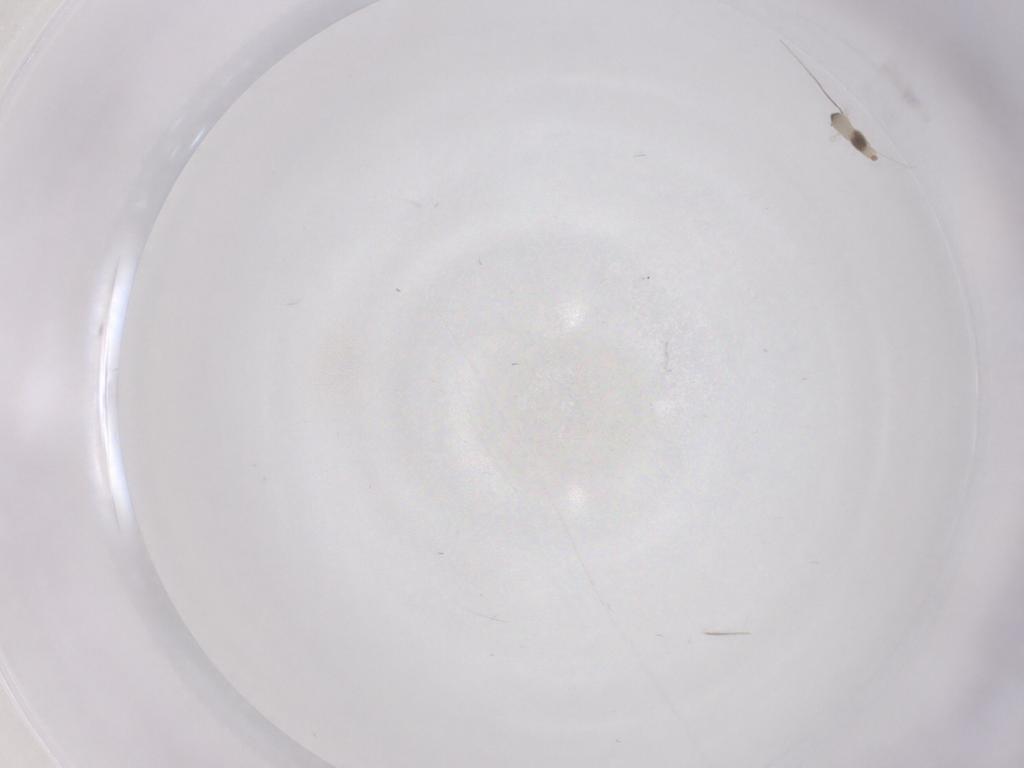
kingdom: Animalia
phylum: Arthropoda
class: Insecta
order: Diptera
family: Cecidomyiidae
